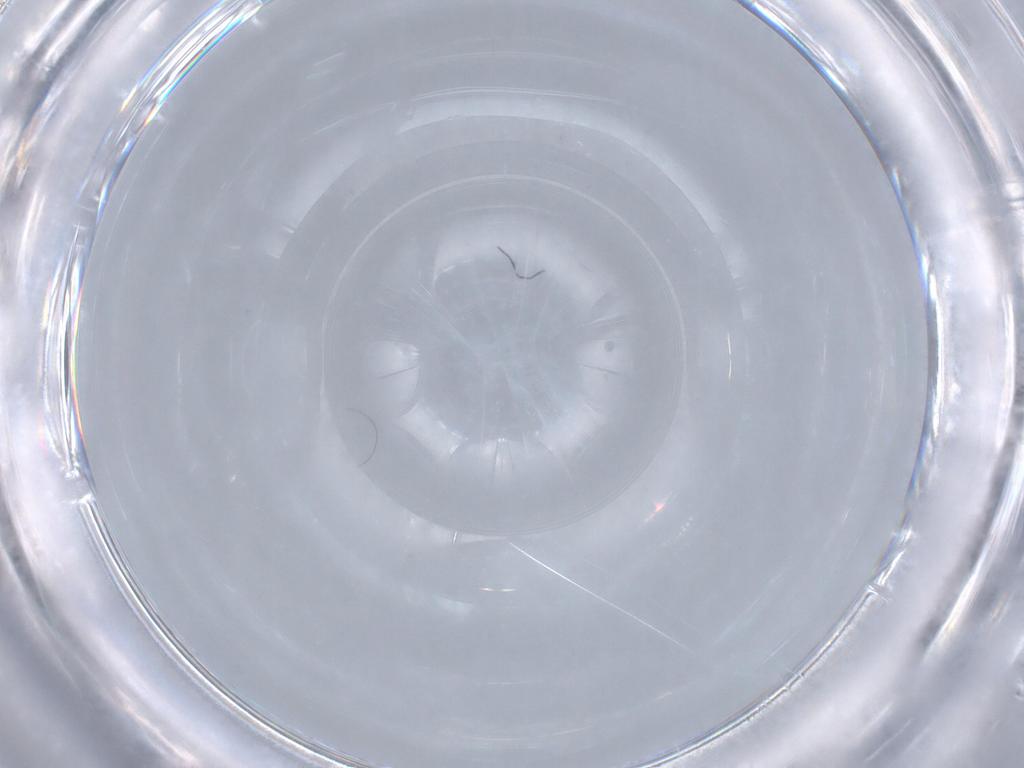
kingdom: Animalia
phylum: Arthropoda
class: Insecta
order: Diptera
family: Phoridae
